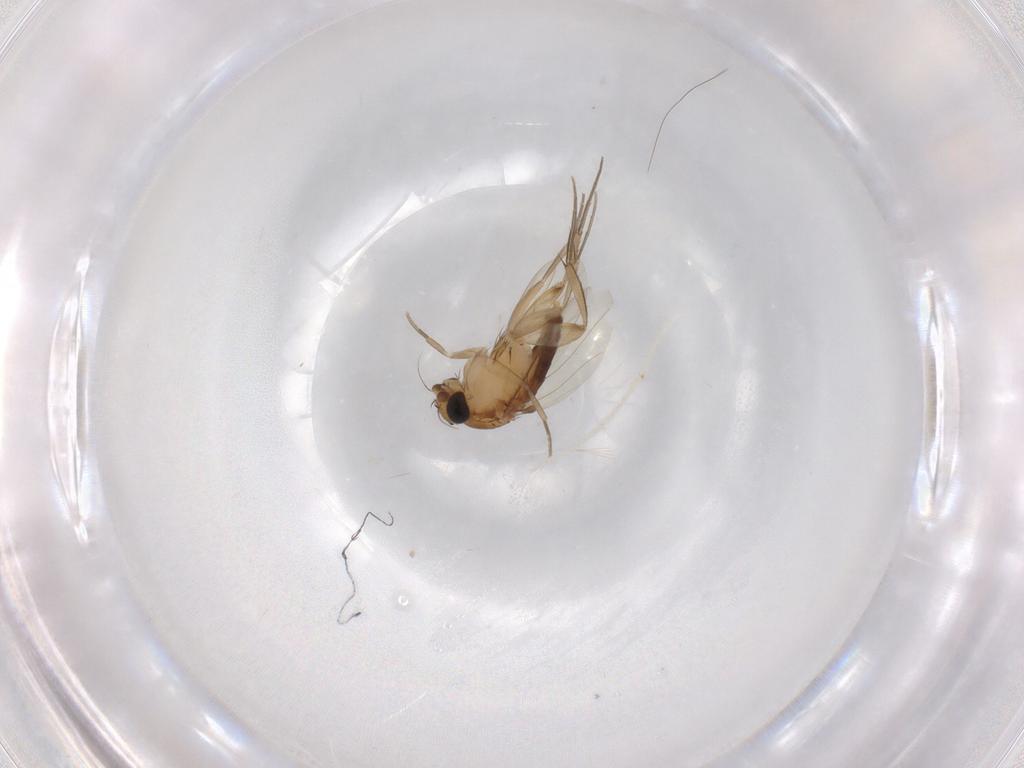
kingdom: Animalia
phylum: Arthropoda
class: Insecta
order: Diptera
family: Phoridae
